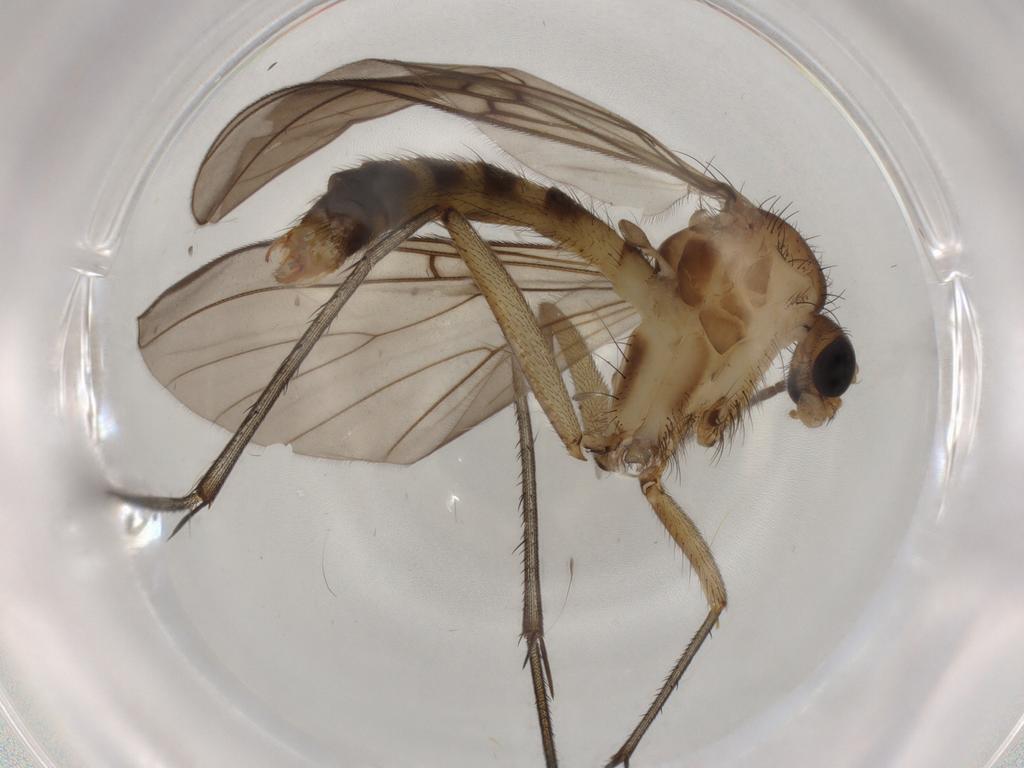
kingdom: Animalia
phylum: Arthropoda
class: Insecta
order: Diptera
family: Mycetophilidae
